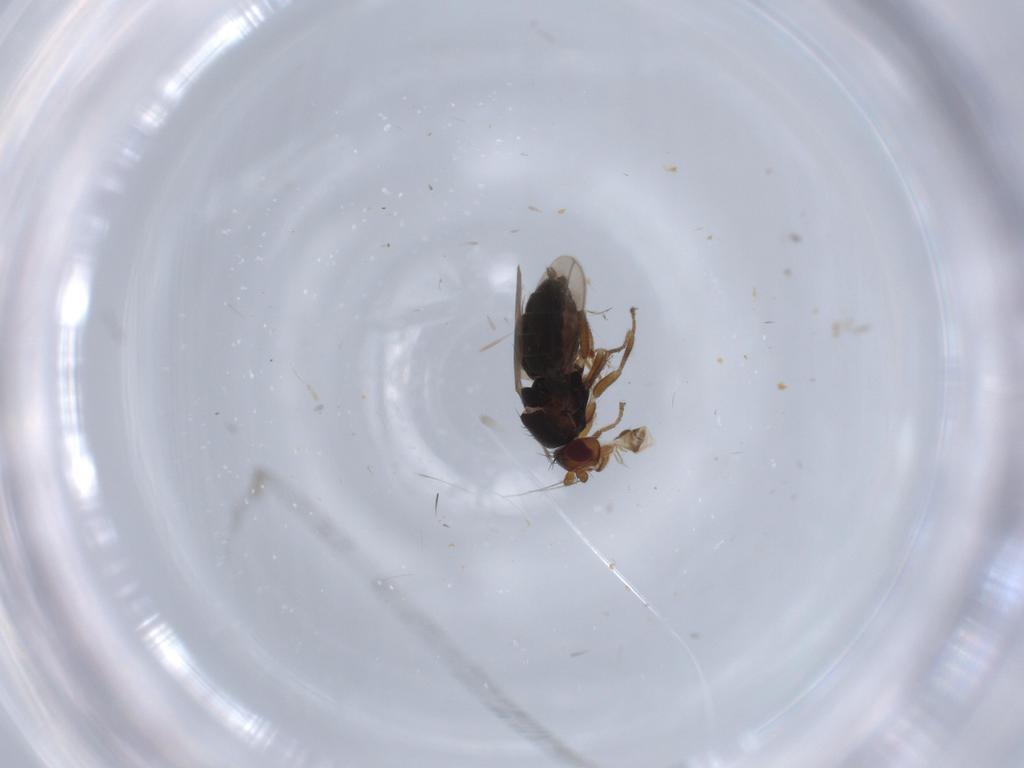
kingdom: Animalia
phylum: Arthropoda
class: Insecta
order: Diptera
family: Sphaeroceridae
